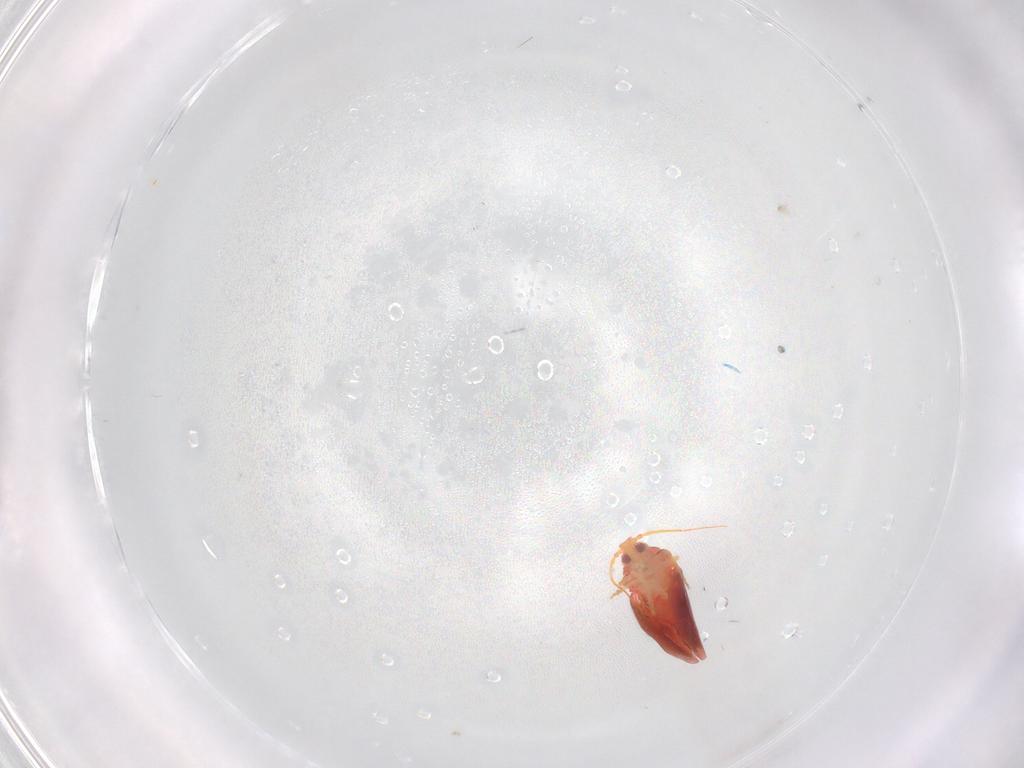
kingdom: Animalia
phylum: Arthropoda
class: Insecta
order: Hemiptera
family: Aleyrodidae
